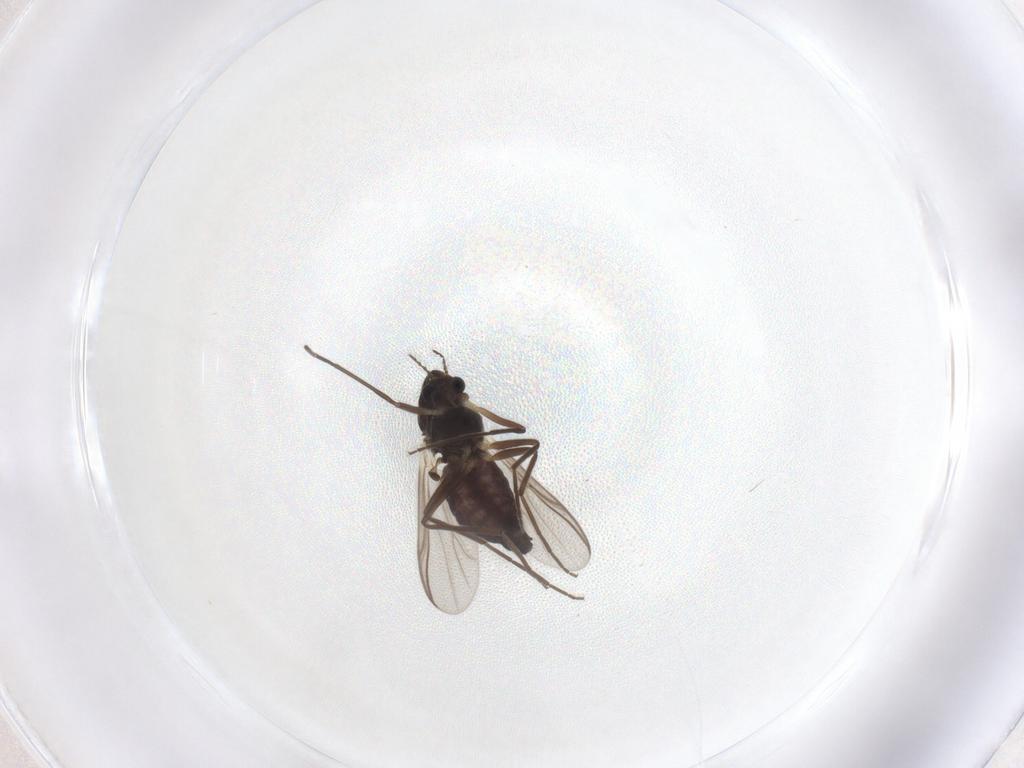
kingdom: Animalia
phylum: Arthropoda
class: Insecta
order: Diptera
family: Chironomidae
